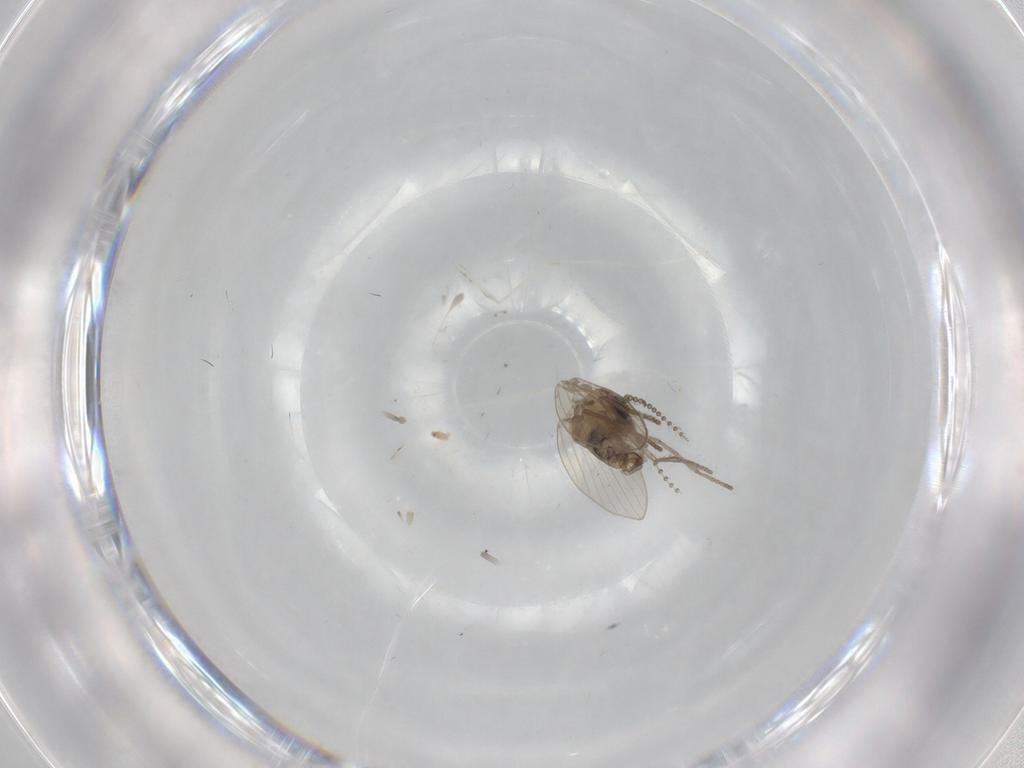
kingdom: Animalia
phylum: Arthropoda
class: Insecta
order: Diptera
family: Psychodidae
